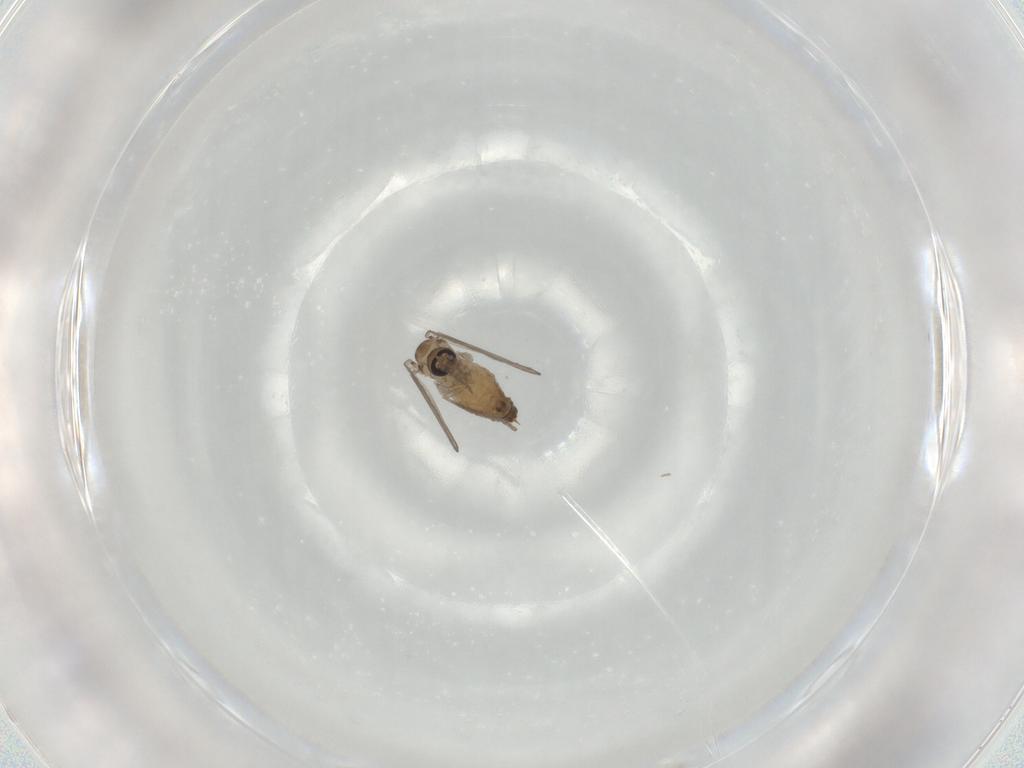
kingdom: Animalia
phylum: Arthropoda
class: Insecta
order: Diptera
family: Psychodidae
